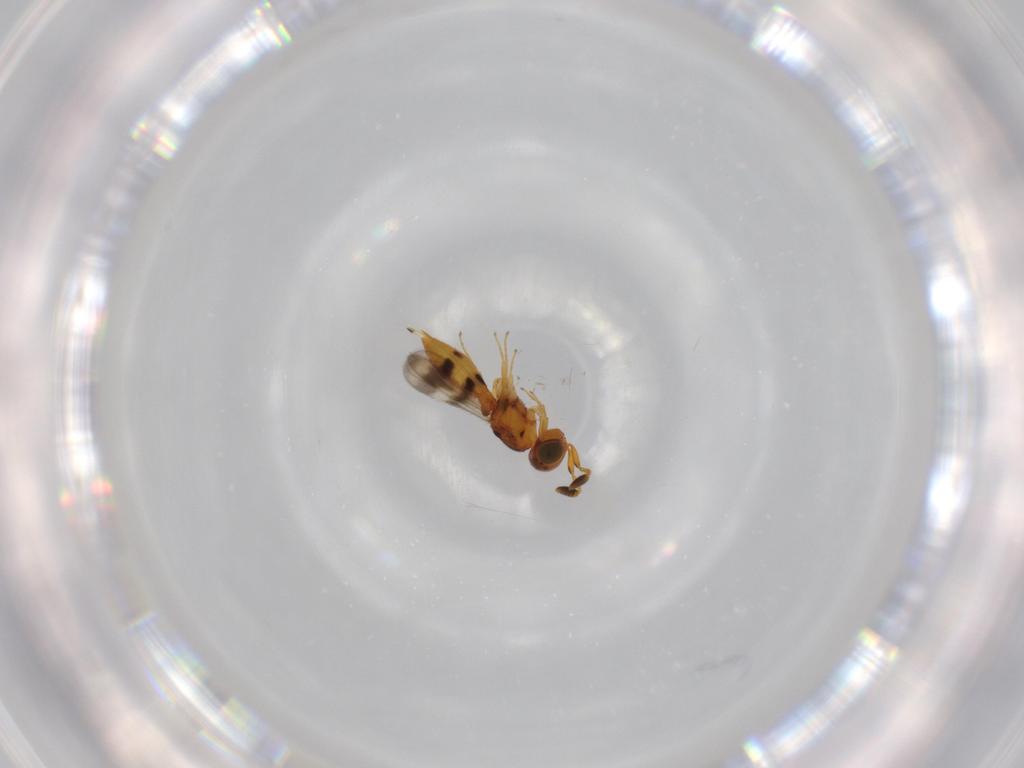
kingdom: Animalia
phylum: Arthropoda
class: Insecta
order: Hymenoptera
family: Scelionidae
